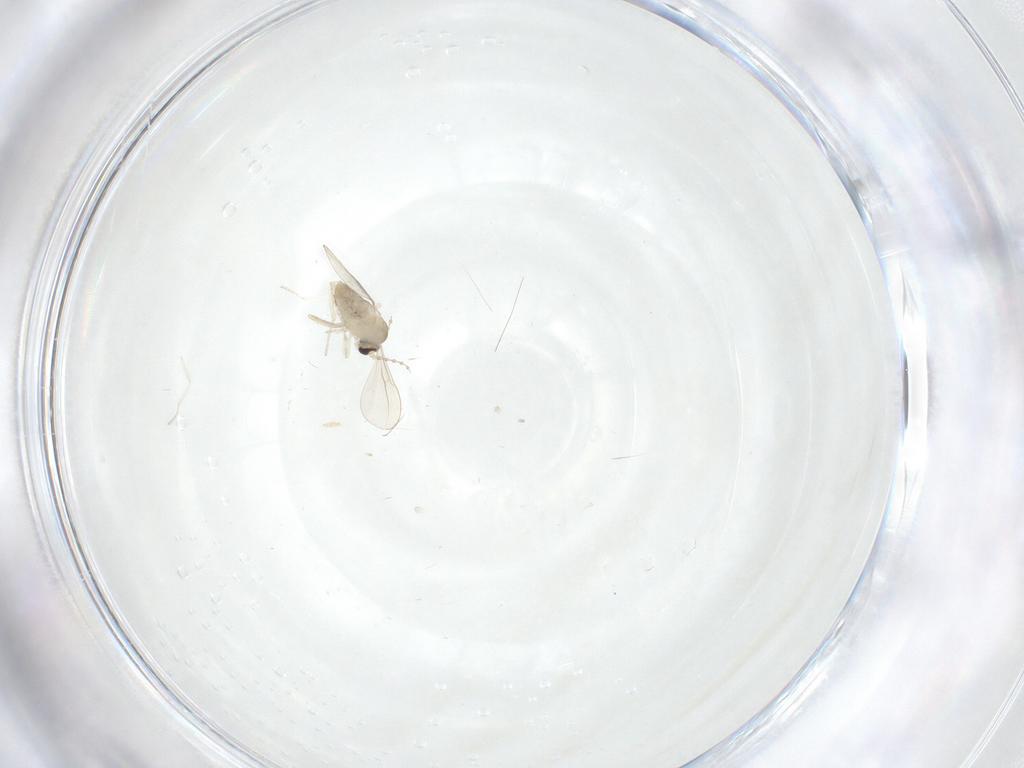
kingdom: Animalia
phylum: Arthropoda
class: Insecta
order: Diptera
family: Cecidomyiidae
